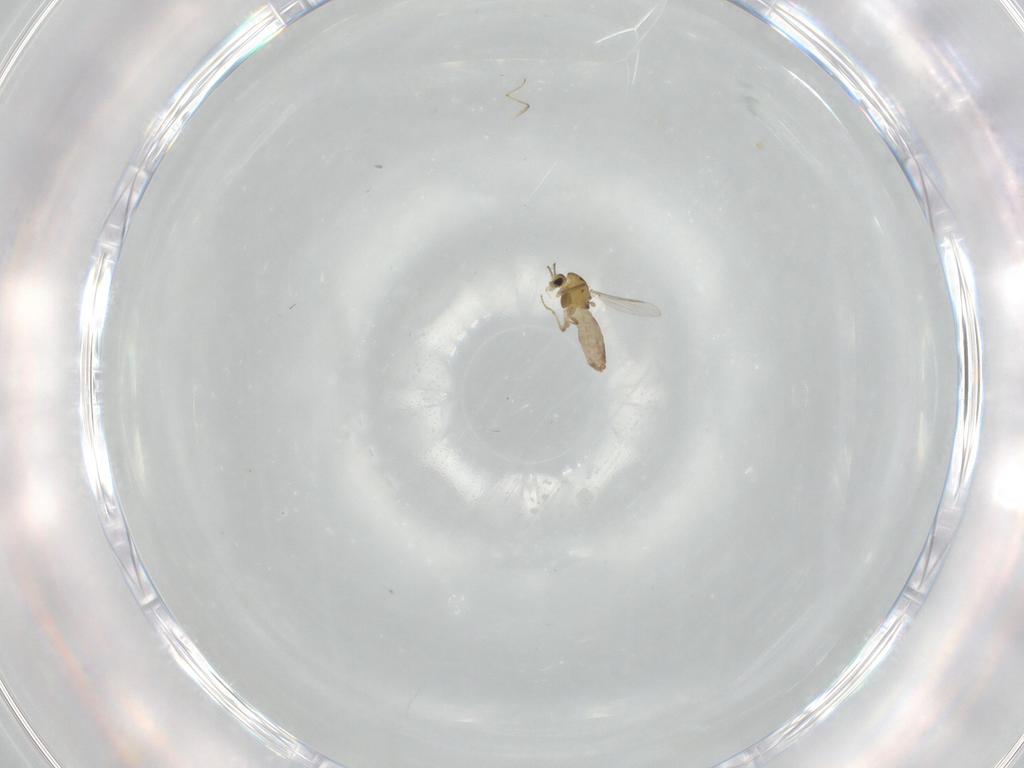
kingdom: Animalia
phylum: Arthropoda
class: Insecta
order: Diptera
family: Chironomidae
